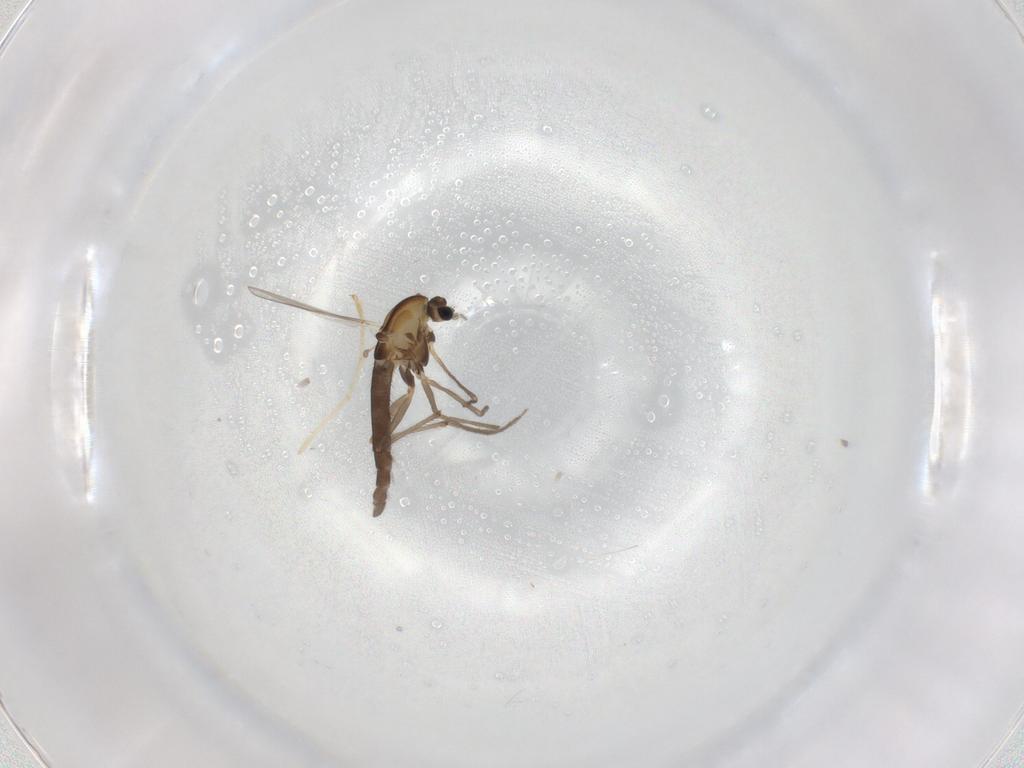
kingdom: Animalia
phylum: Arthropoda
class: Insecta
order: Diptera
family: Chironomidae
